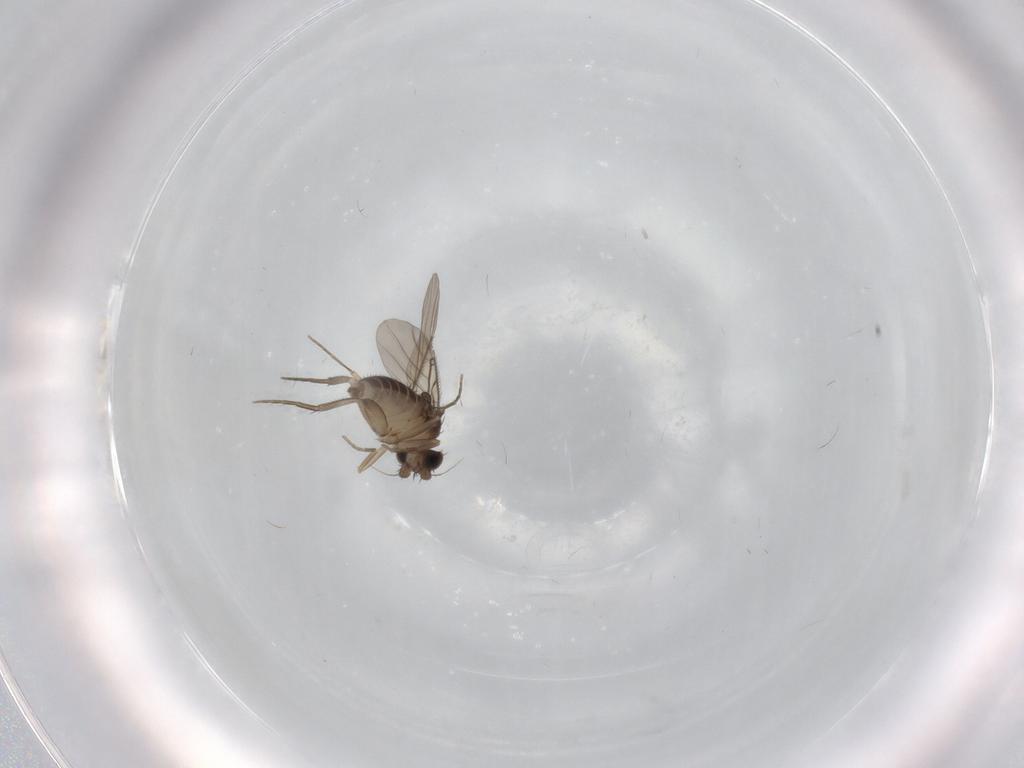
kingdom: Animalia
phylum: Arthropoda
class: Insecta
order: Diptera
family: Phoridae
